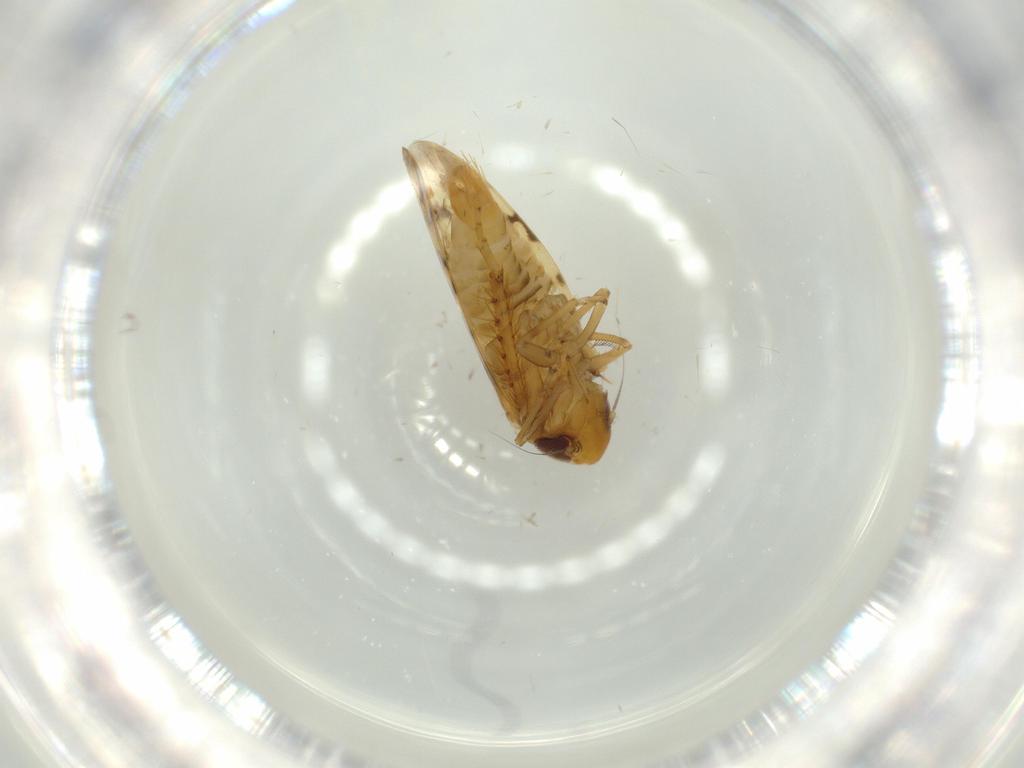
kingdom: Animalia
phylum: Arthropoda
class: Insecta
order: Hemiptera
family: Cicadellidae
